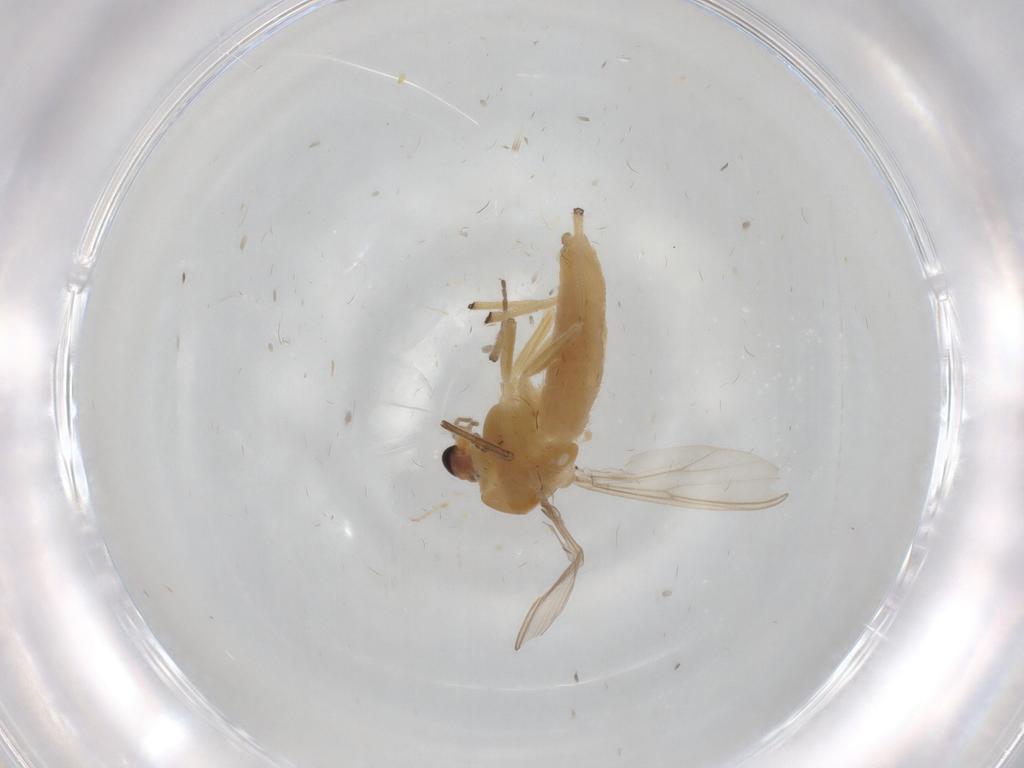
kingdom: Animalia
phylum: Arthropoda
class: Insecta
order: Diptera
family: Chironomidae
